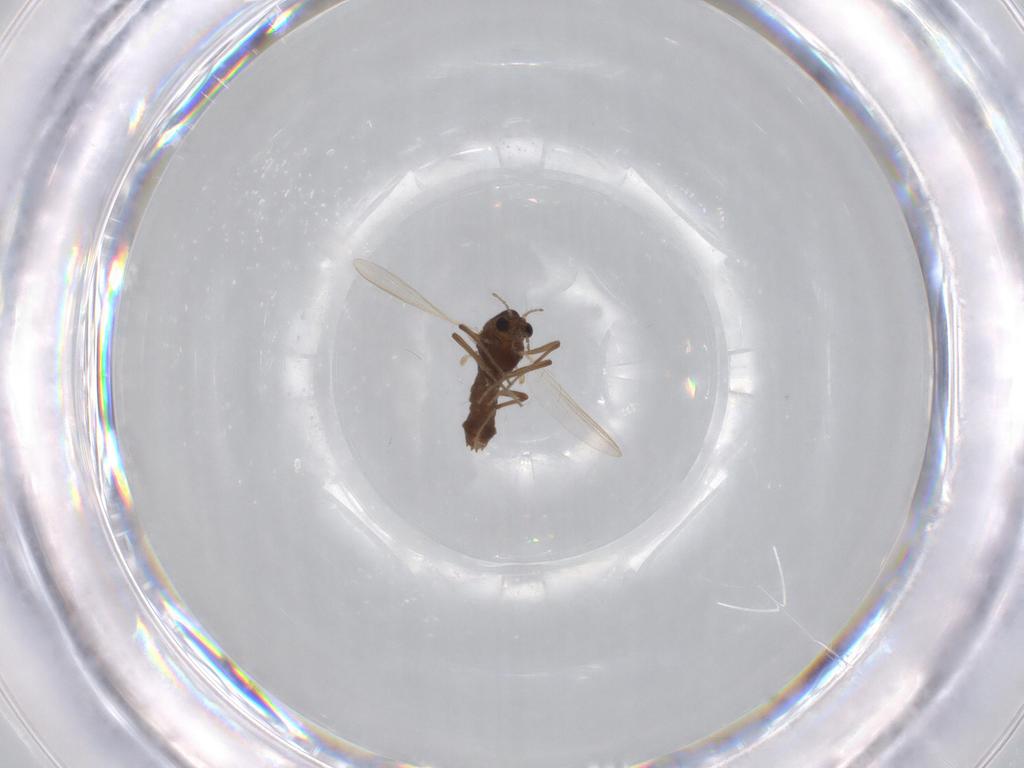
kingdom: Animalia
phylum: Arthropoda
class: Insecta
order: Diptera
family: Chironomidae
